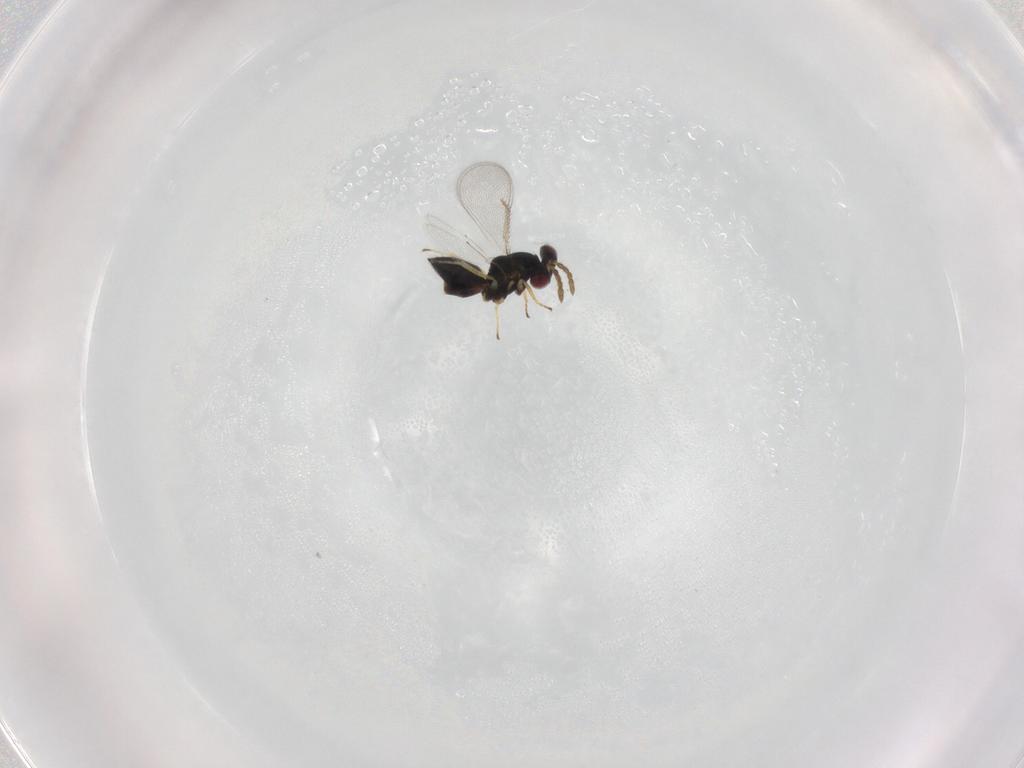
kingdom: Animalia
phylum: Arthropoda
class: Insecta
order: Hymenoptera
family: Eulophidae
